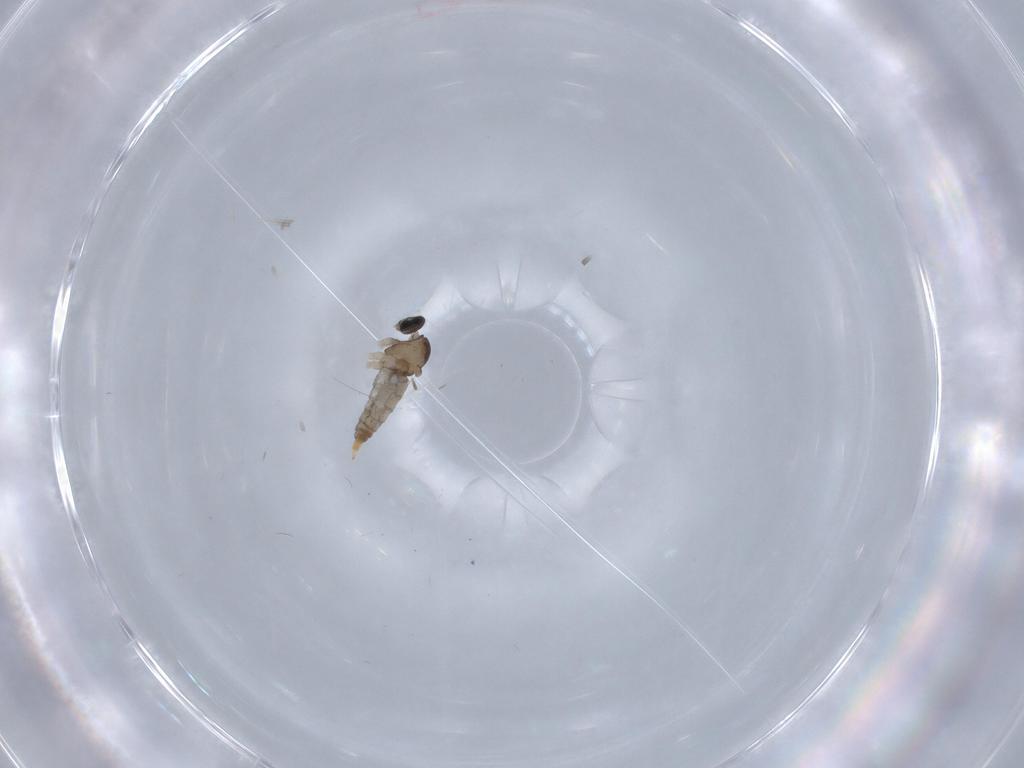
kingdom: Animalia
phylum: Arthropoda
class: Insecta
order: Diptera
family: Cecidomyiidae
